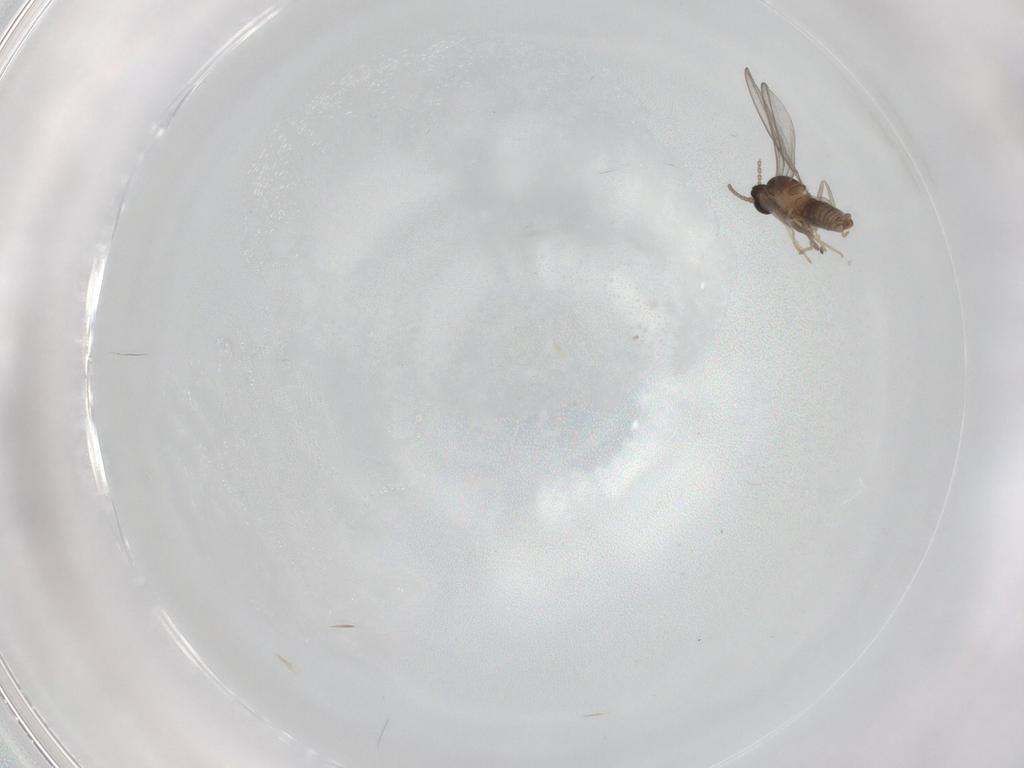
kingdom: Animalia
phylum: Arthropoda
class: Insecta
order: Diptera
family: Cecidomyiidae
